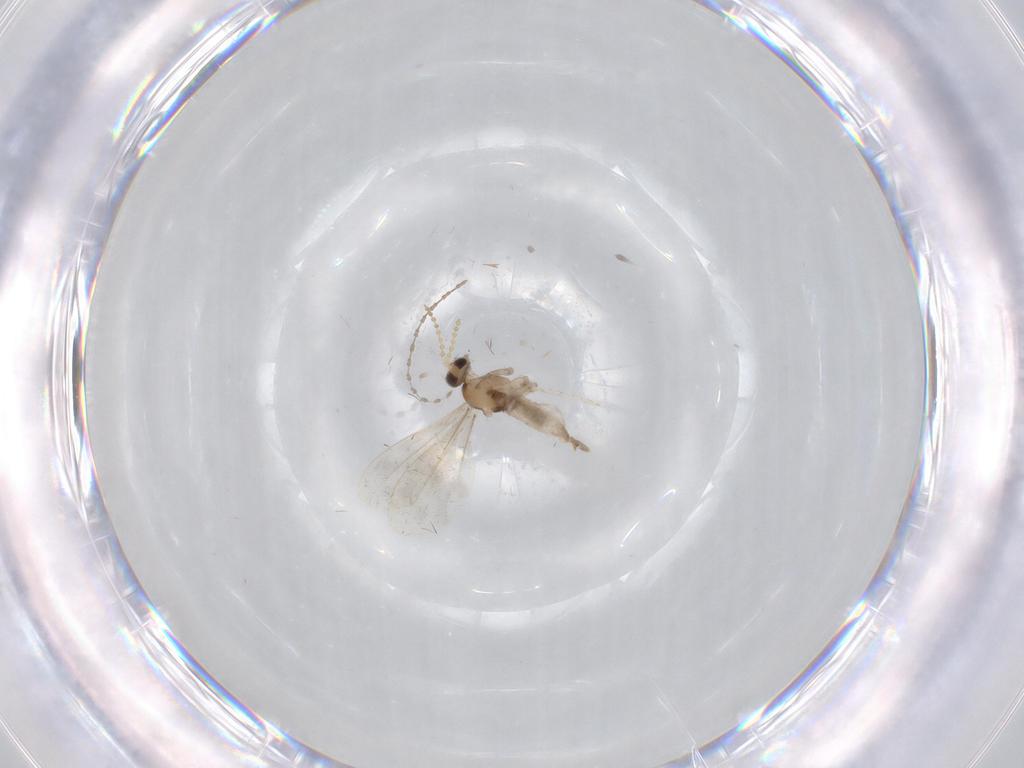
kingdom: Animalia
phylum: Arthropoda
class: Insecta
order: Diptera
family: Cecidomyiidae
